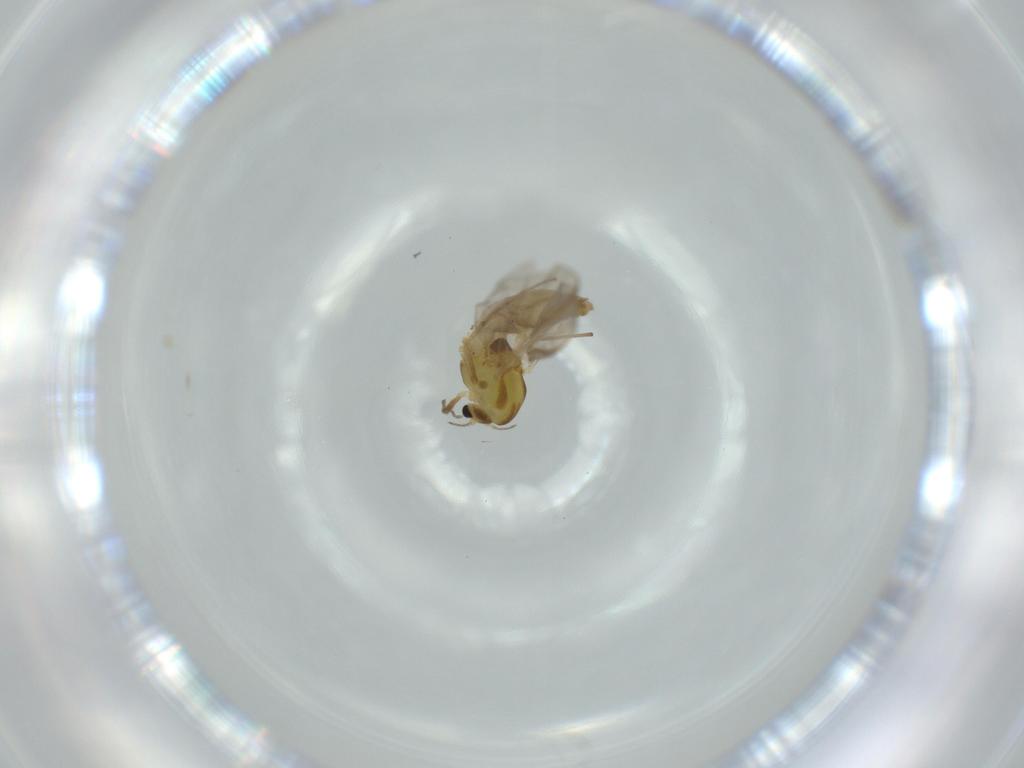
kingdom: Animalia
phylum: Arthropoda
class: Insecta
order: Diptera
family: Chironomidae
